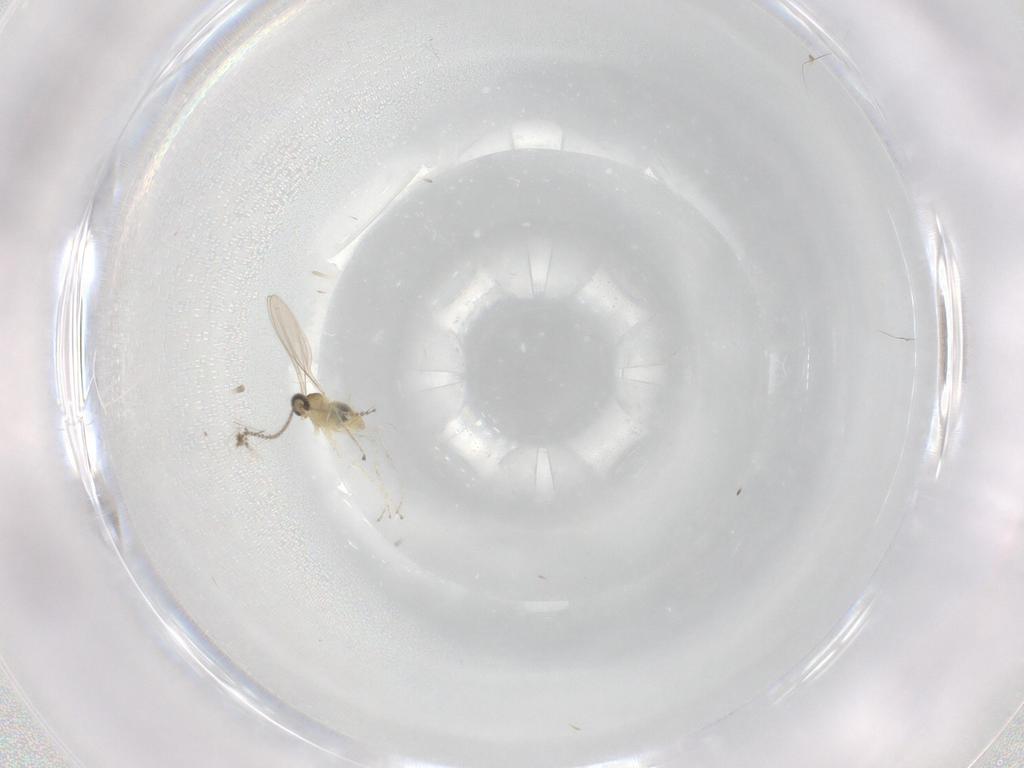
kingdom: Animalia
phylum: Arthropoda
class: Insecta
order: Diptera
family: Cecidomyiidae
